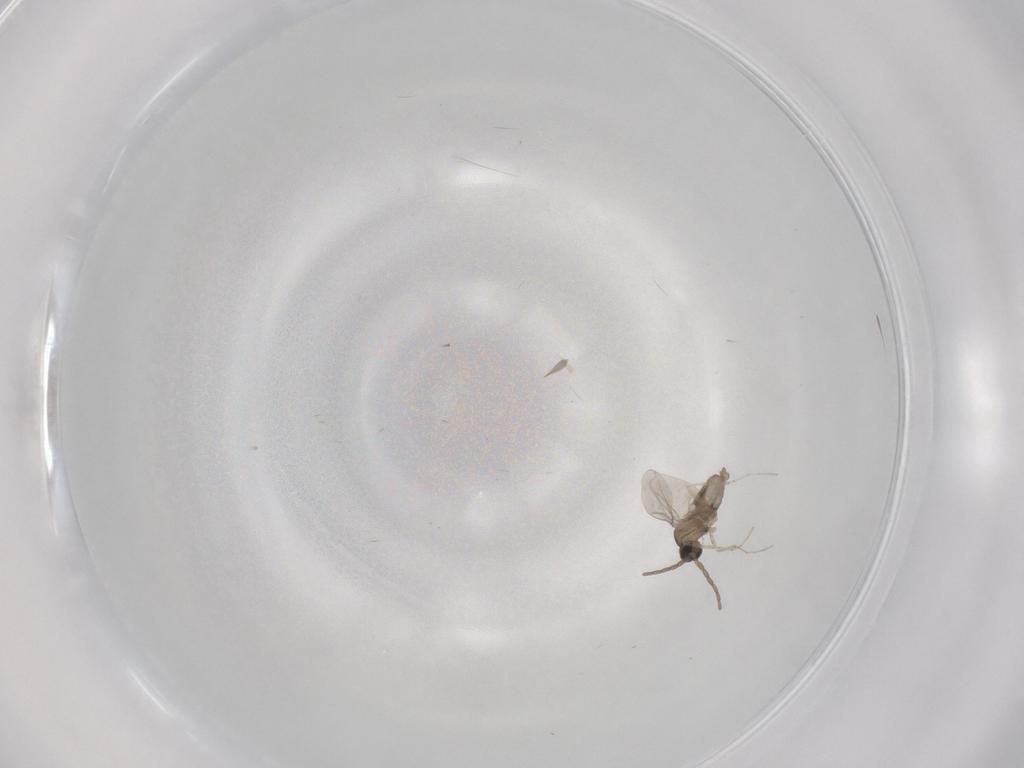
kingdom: Animalia
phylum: Arthropoda
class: Insecta
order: Diptera
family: Cecidomyiidae
